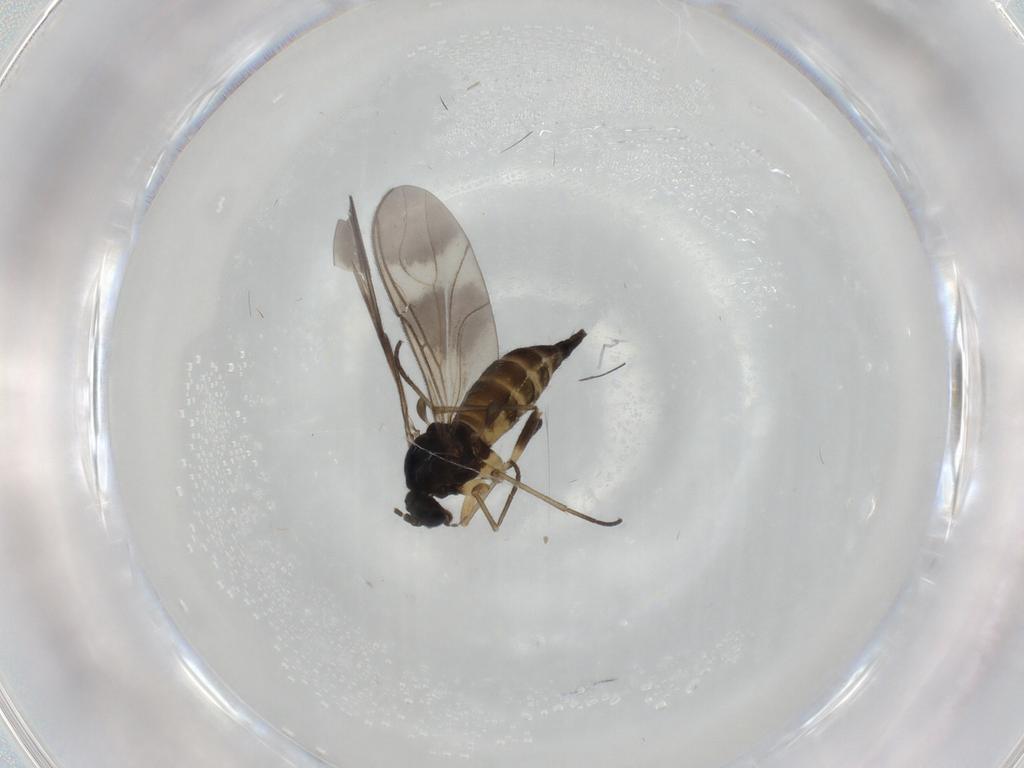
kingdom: Animalia
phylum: Arthropoda
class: Insecta
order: Diptera
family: Sciaridae
